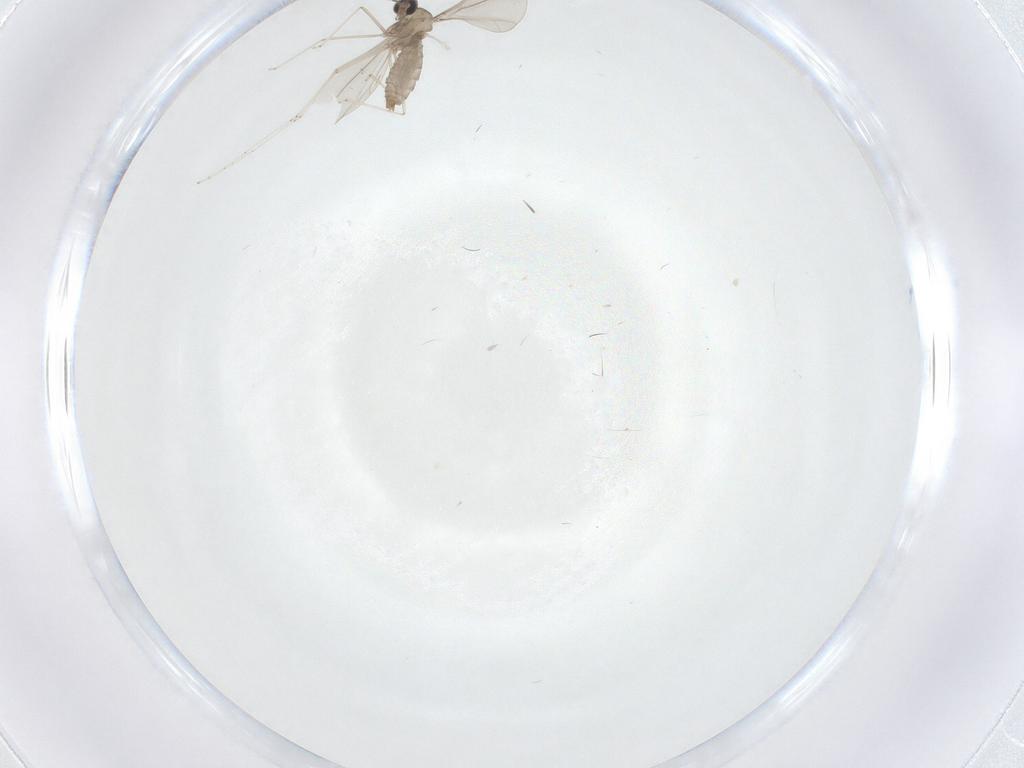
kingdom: Animalia
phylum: Arthropoda
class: Insecta
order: Diptera
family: Cecidomyiidae
